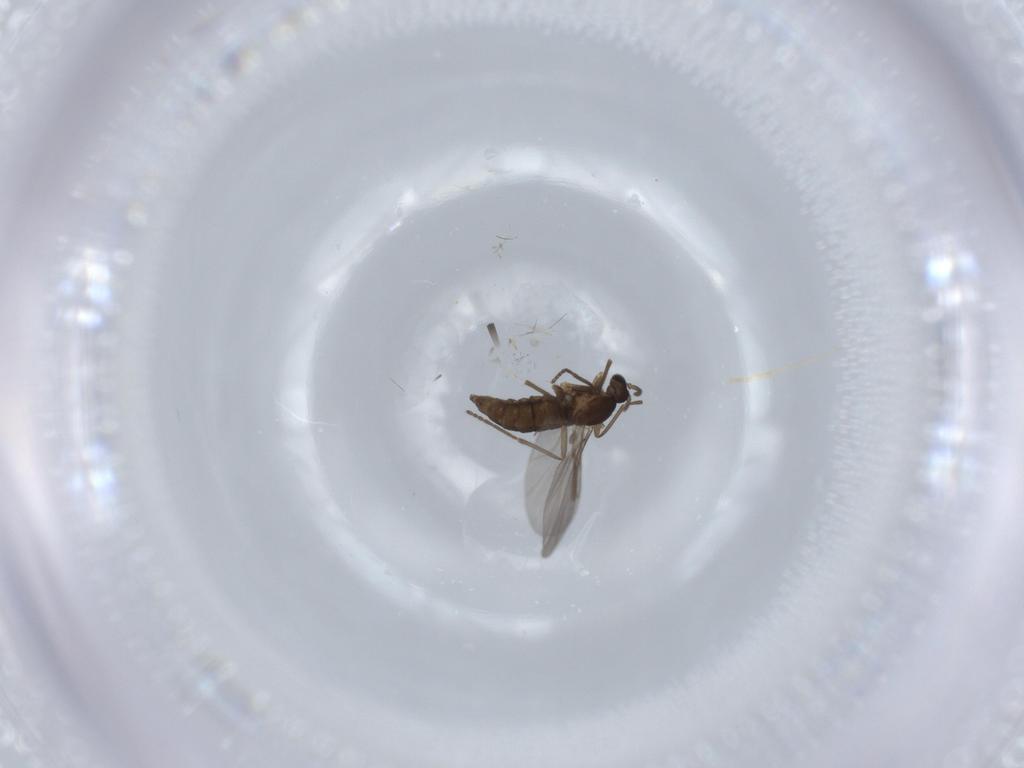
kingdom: Animalia
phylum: Arthropoda
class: Insecta
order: Diptera
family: Cecidomyiidae
